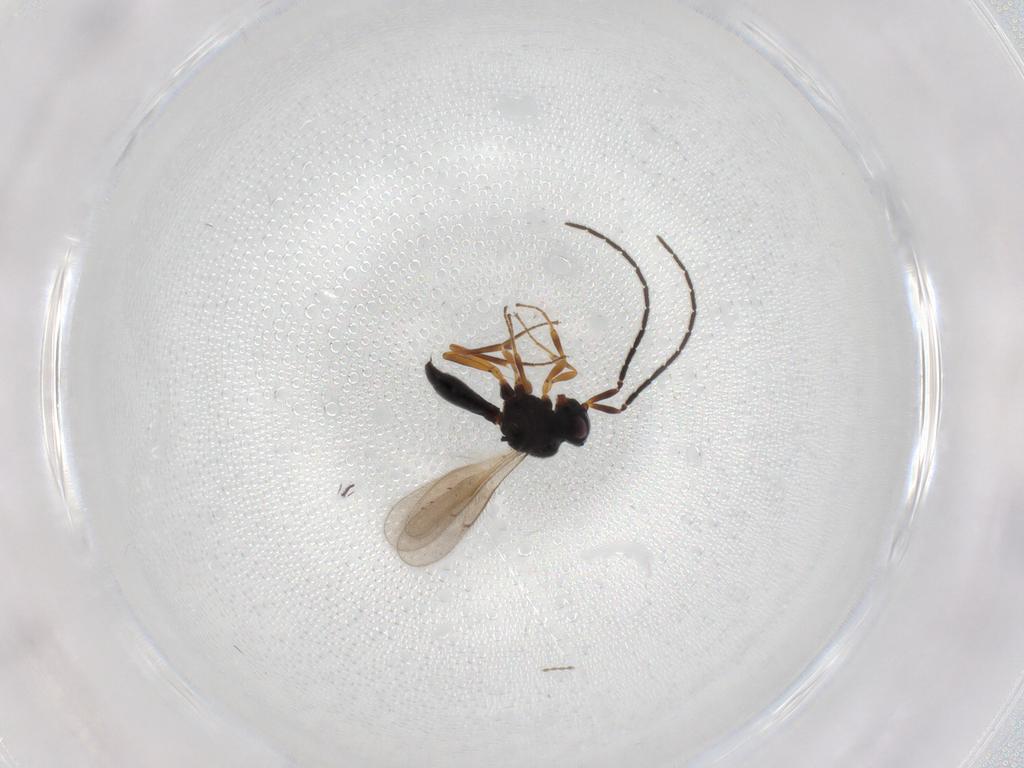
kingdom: Animalia
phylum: Arthropoda
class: Insecta
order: Hymenoptera
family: Scelionidae
